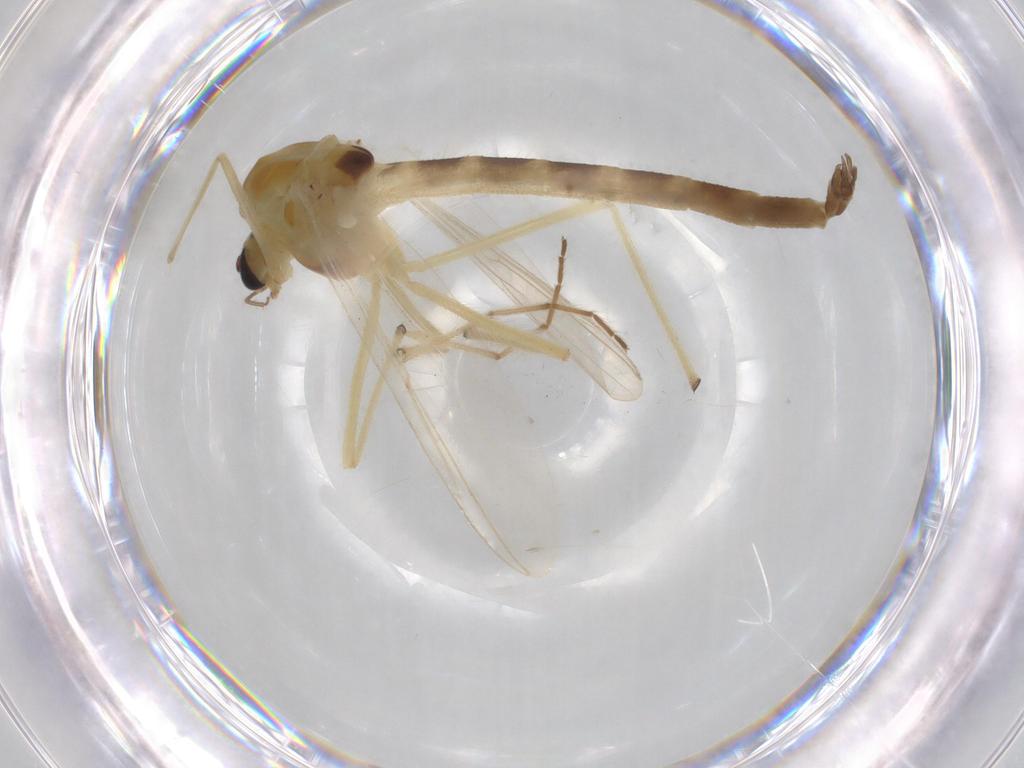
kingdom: Animalia
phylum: Arthropoda
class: Insecta
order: Diptera
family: Chironomidae
